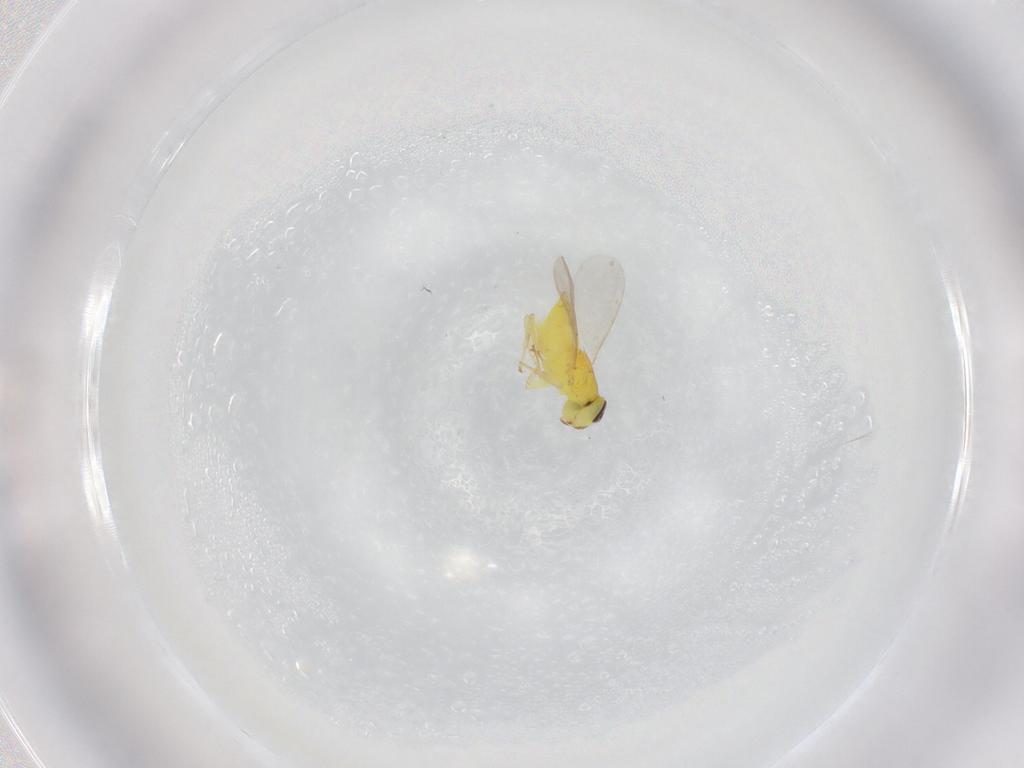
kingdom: Animalia
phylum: Arthropoda
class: Insecta
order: Hymenoptera
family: Aphelinidae
